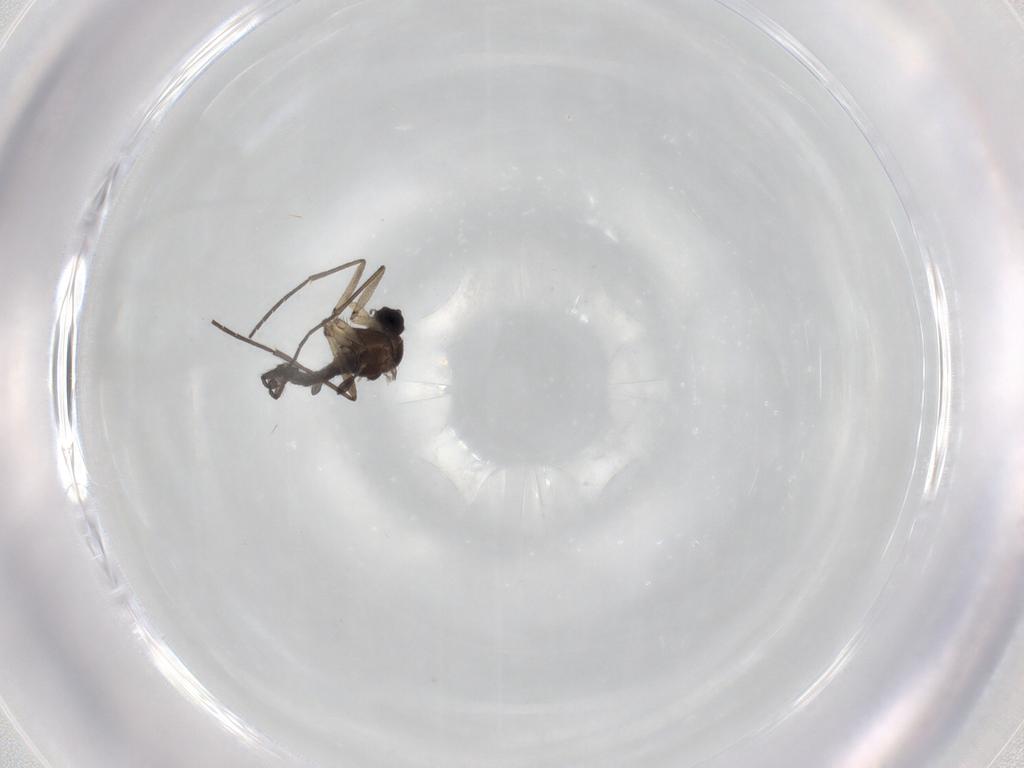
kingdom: Animalia
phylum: Arthropoda
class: Insecta
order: Diptera
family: Sciaridae
